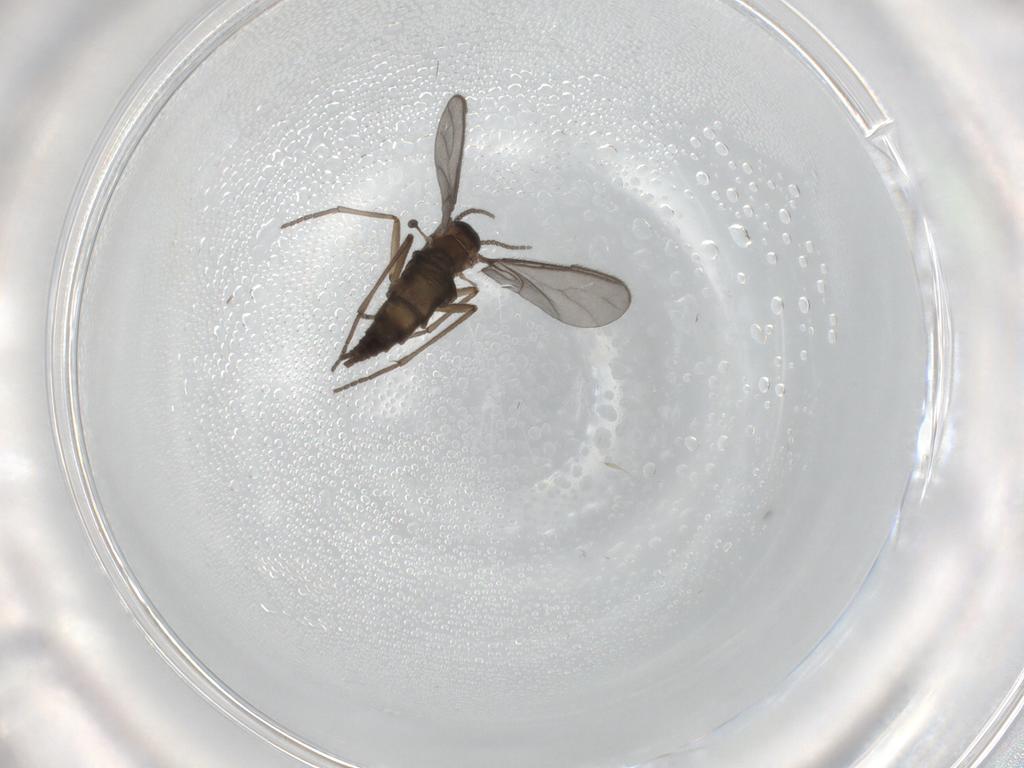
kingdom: Animalia
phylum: Arthropoda
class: Insecta
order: Diptera
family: Sciaridae
